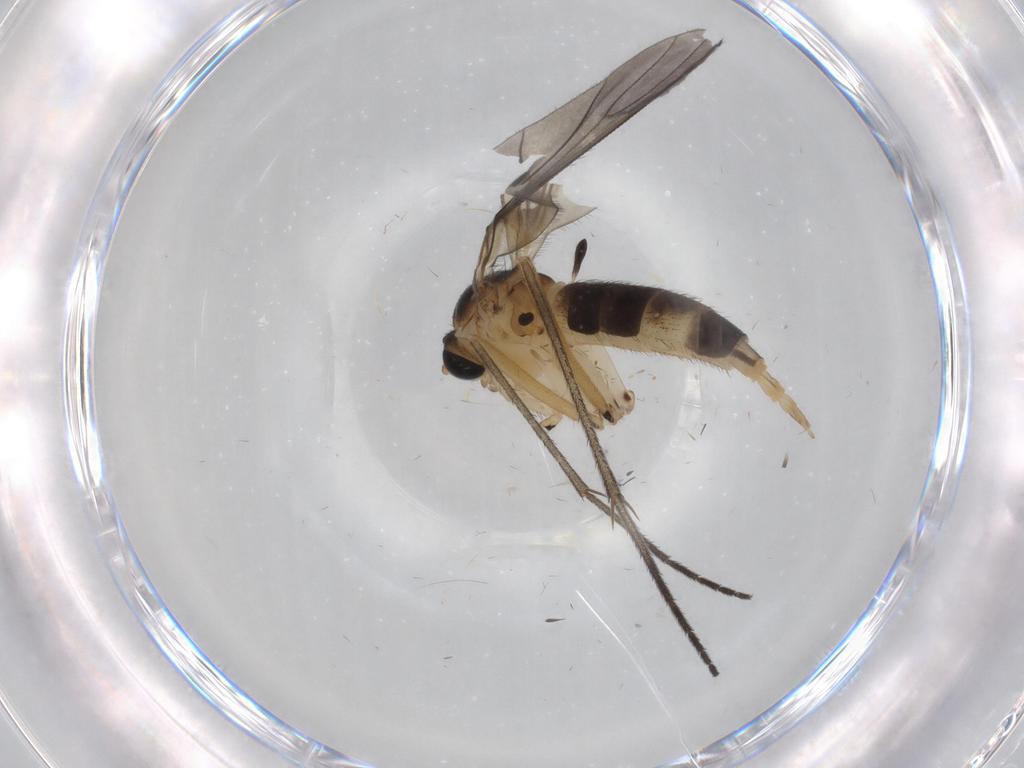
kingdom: Animalia
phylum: Arthropoda
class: Insecta
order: Diptera
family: Sciaridae
